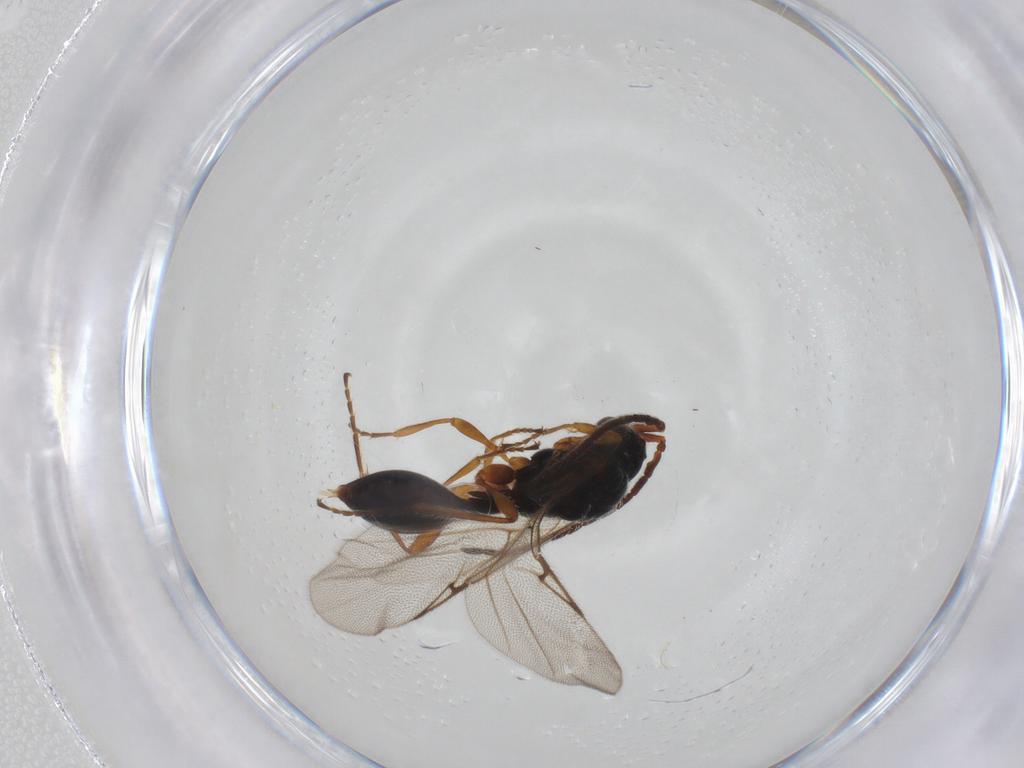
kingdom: Animalia
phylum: Arthropoda
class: Insecta
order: Hymenoptera
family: Diapriidae
